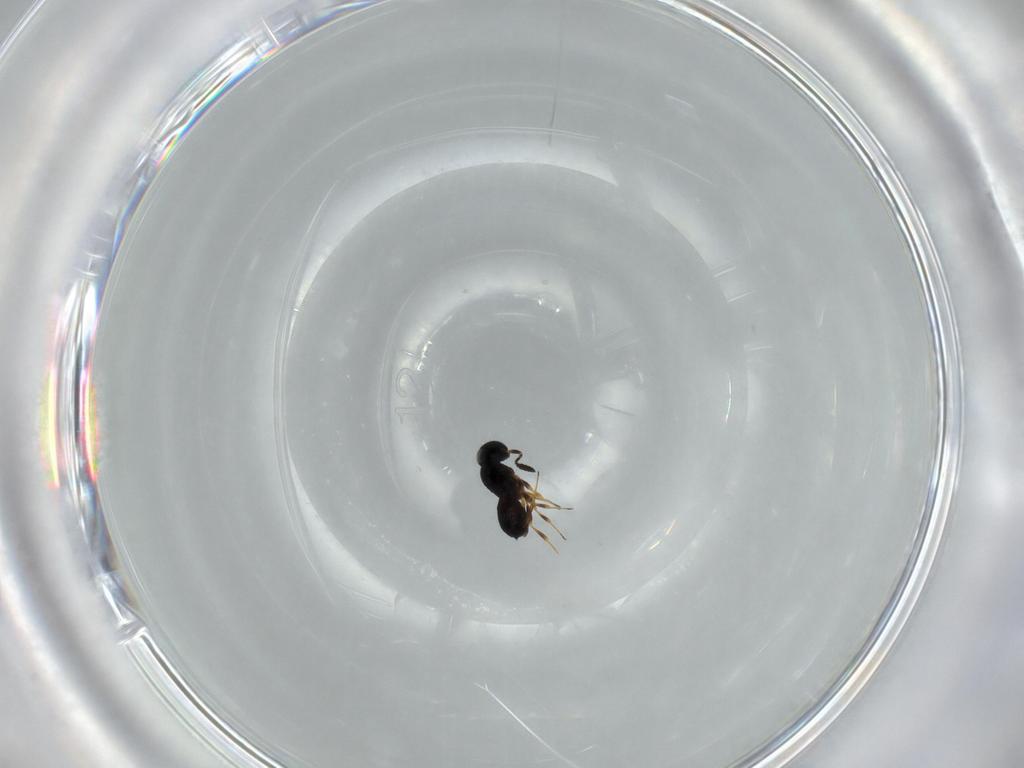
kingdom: Animalia
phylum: Arthropoda
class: Insecta
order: Hymenoptera
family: Scelionidae
